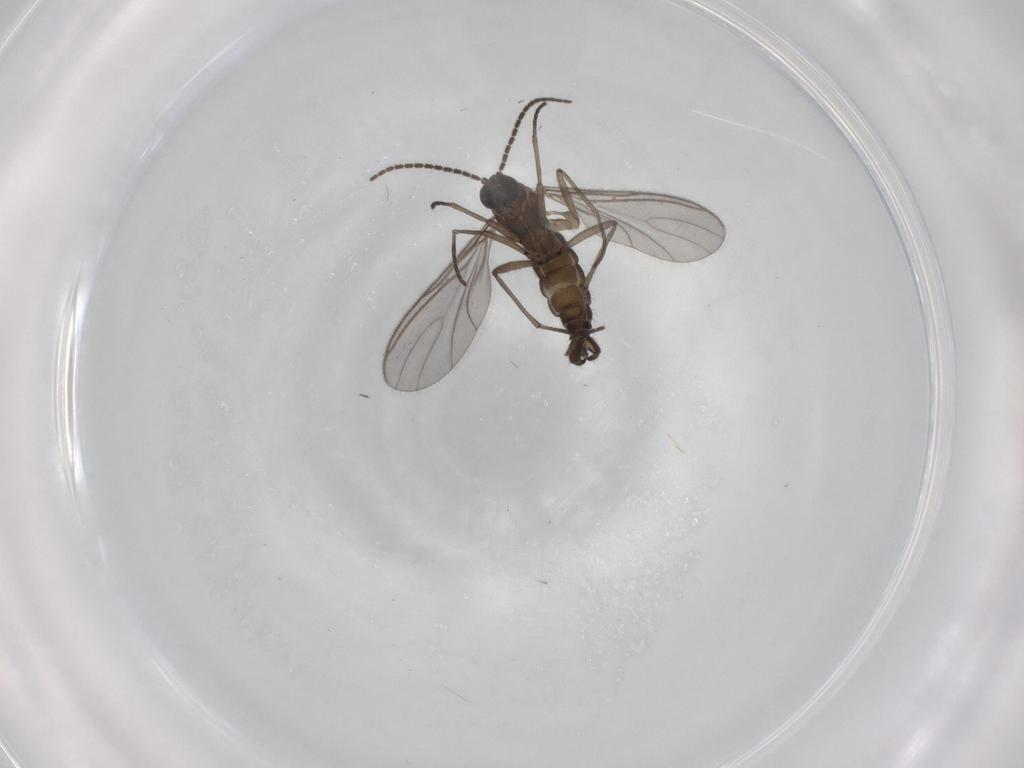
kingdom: Animalia
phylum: Arthropoda
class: Insecta
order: Diptera
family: Sciaridae
